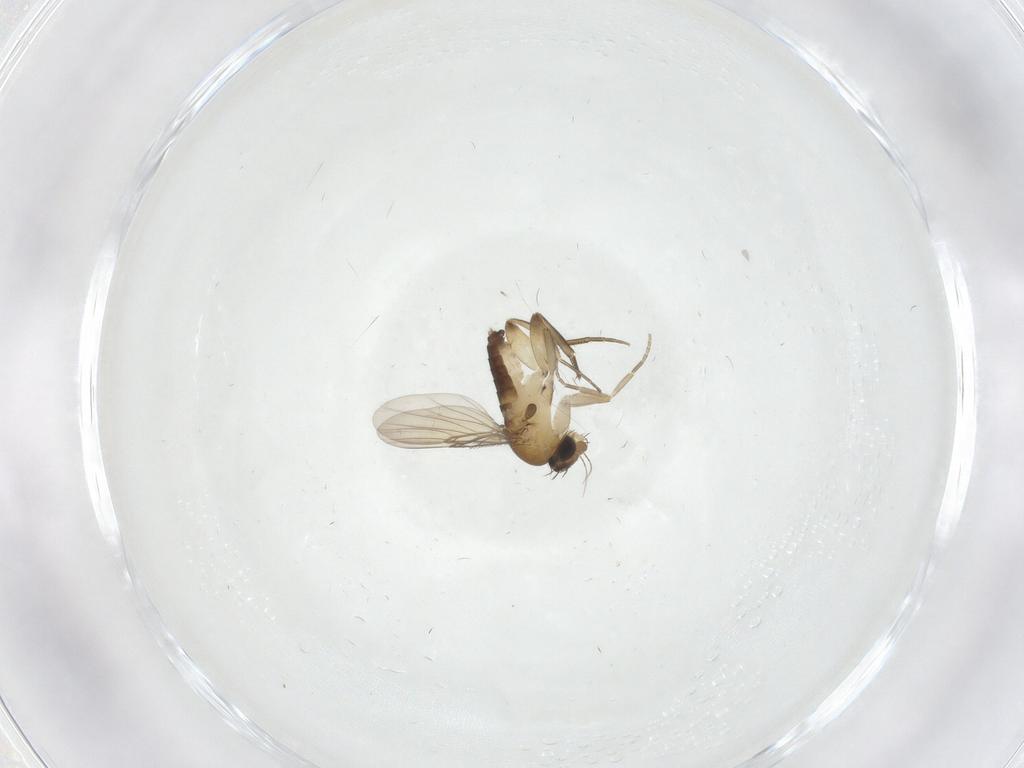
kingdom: Animalia
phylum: Arthropoda
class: Insecta
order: Diptera
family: Phoridae
